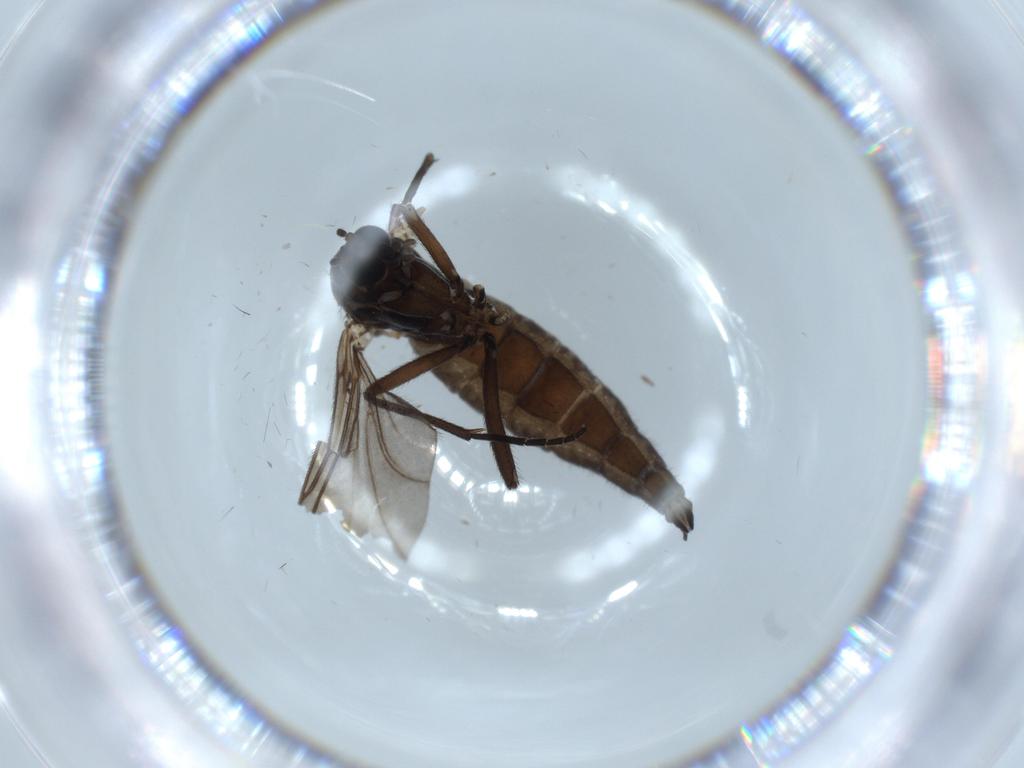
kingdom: Animalia
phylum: Arthropoda
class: Insecta
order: Diptera
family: Sciaridae
